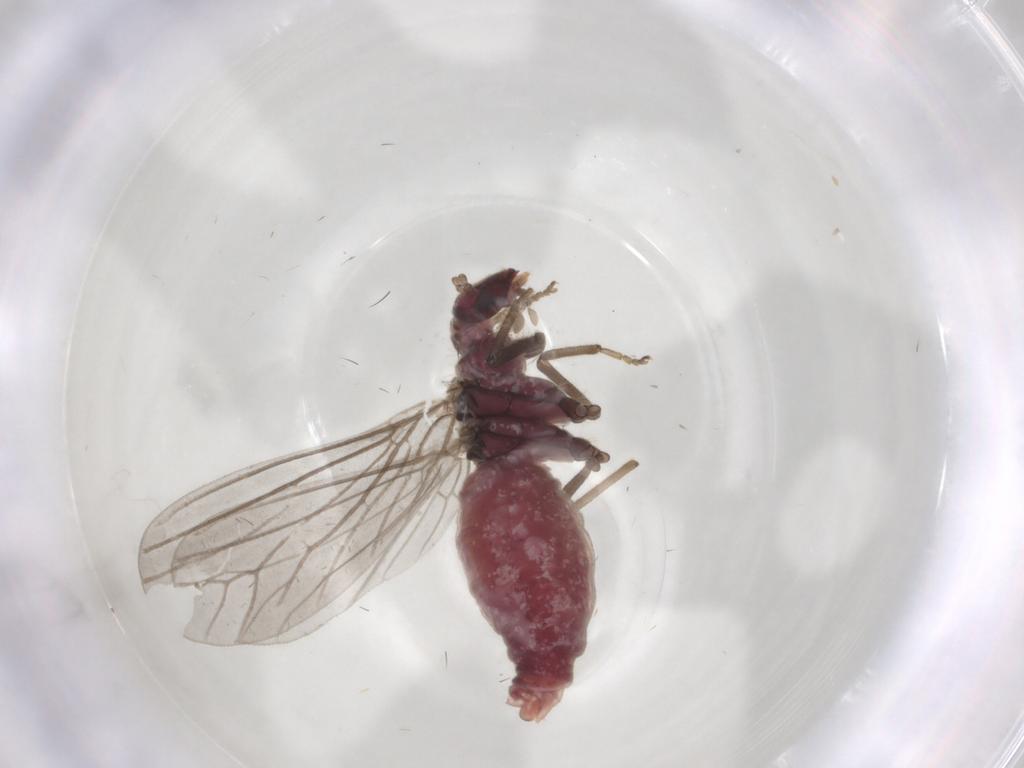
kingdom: Animalia
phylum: Arthropoda
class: Insecta
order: Neuroptera
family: Coniopterygidae
